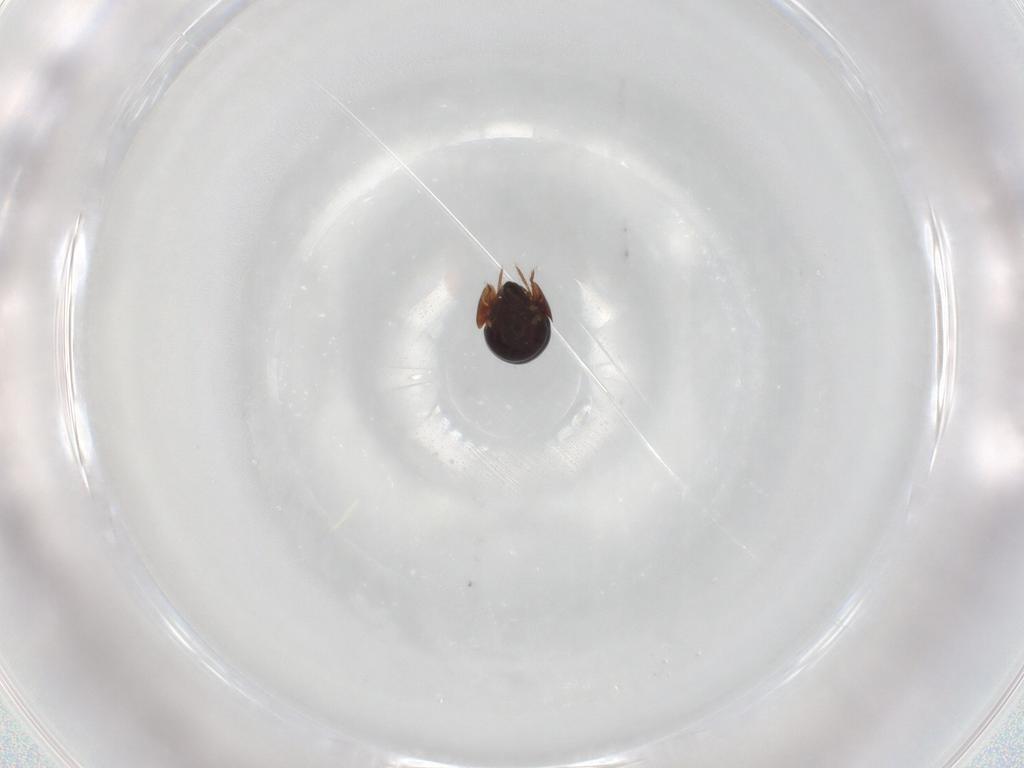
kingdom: Animalia
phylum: Arthropoda
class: Arachnida
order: Sarcoptiformes
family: Ceratozetidae
